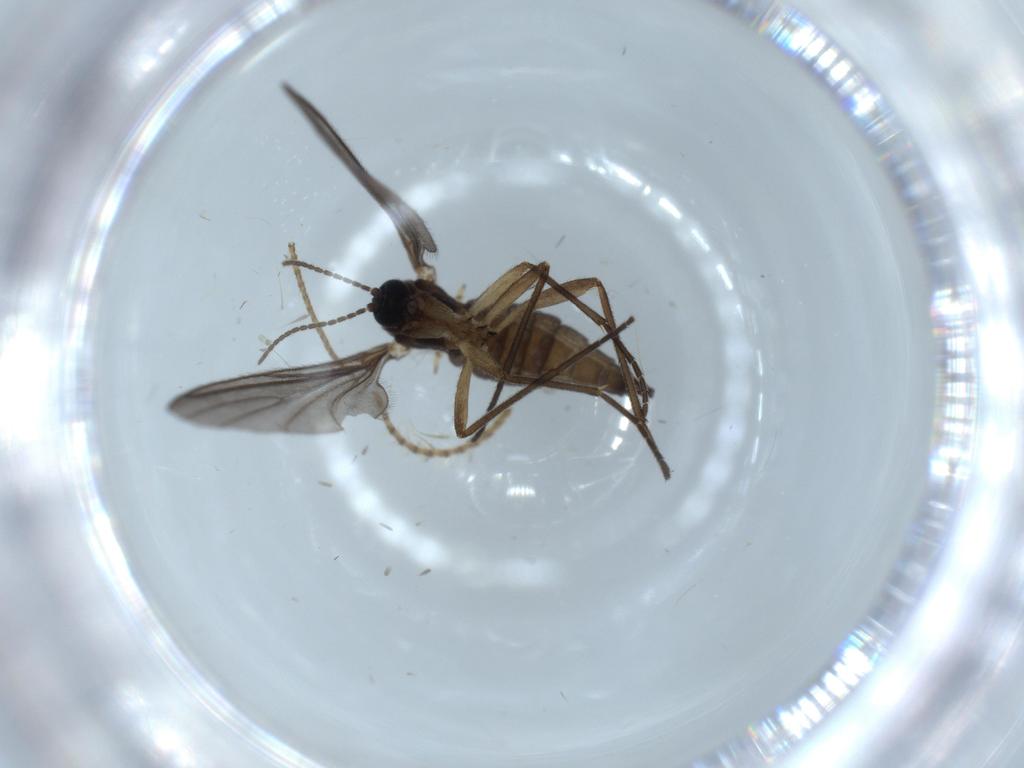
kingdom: Animalia
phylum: Arthropoda
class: Insecta
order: Diptera
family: Sciaridae
